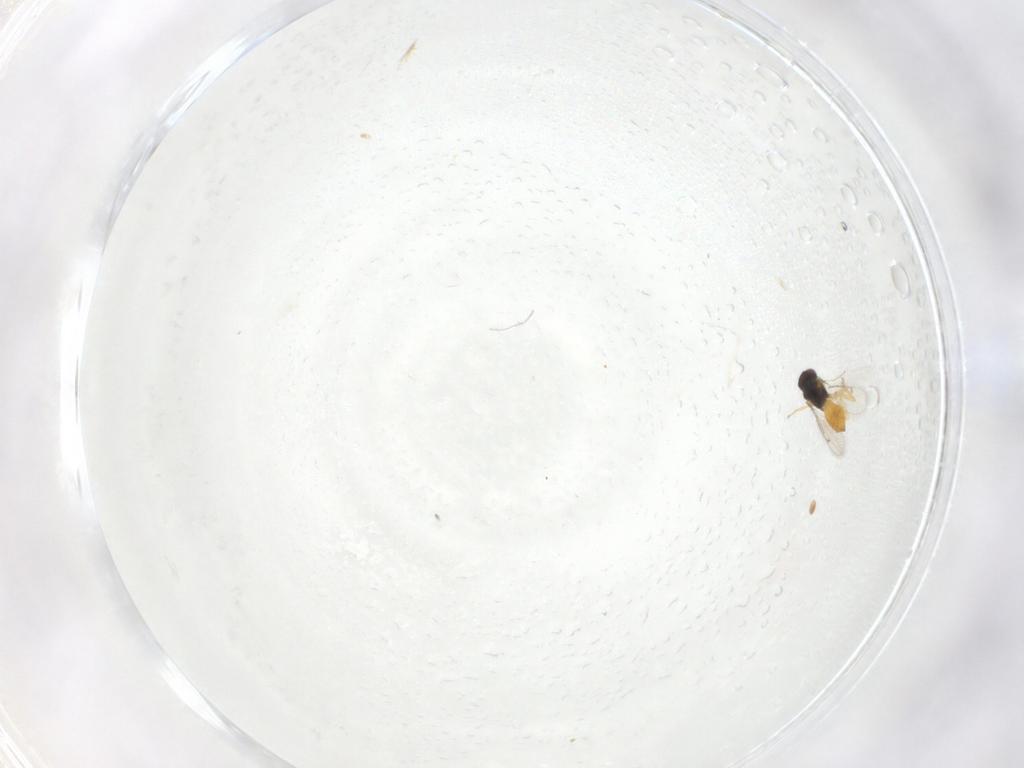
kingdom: Animalia
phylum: Arthropoda
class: Insecta
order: Hymenoptera
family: Eulophidae
